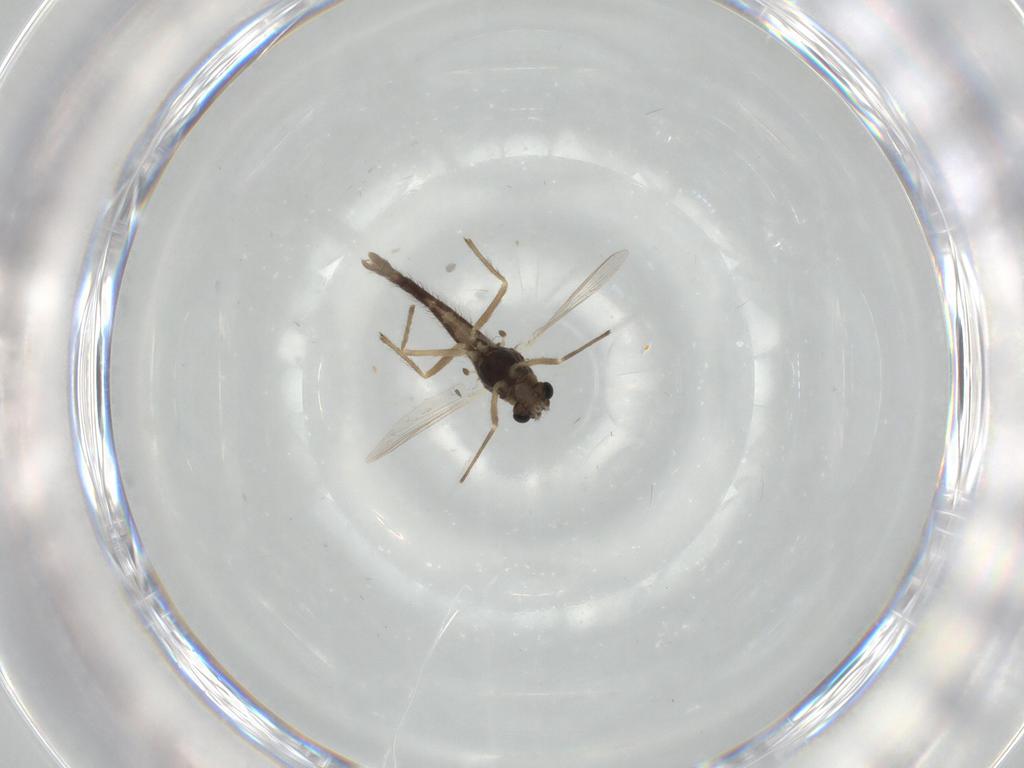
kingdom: Animalia
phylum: Arthropoda
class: Insecta
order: Diptera
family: Chironomidae
